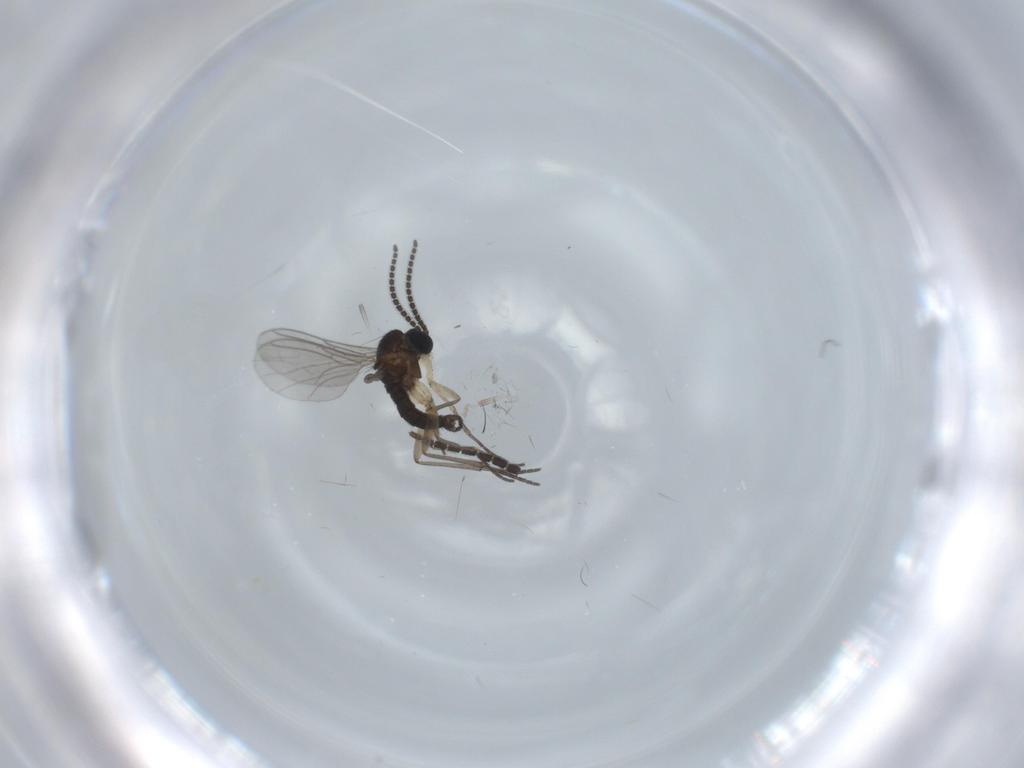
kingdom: Animalia
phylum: Arthropoda
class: Insecta
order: Diptera
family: Sciaridae
